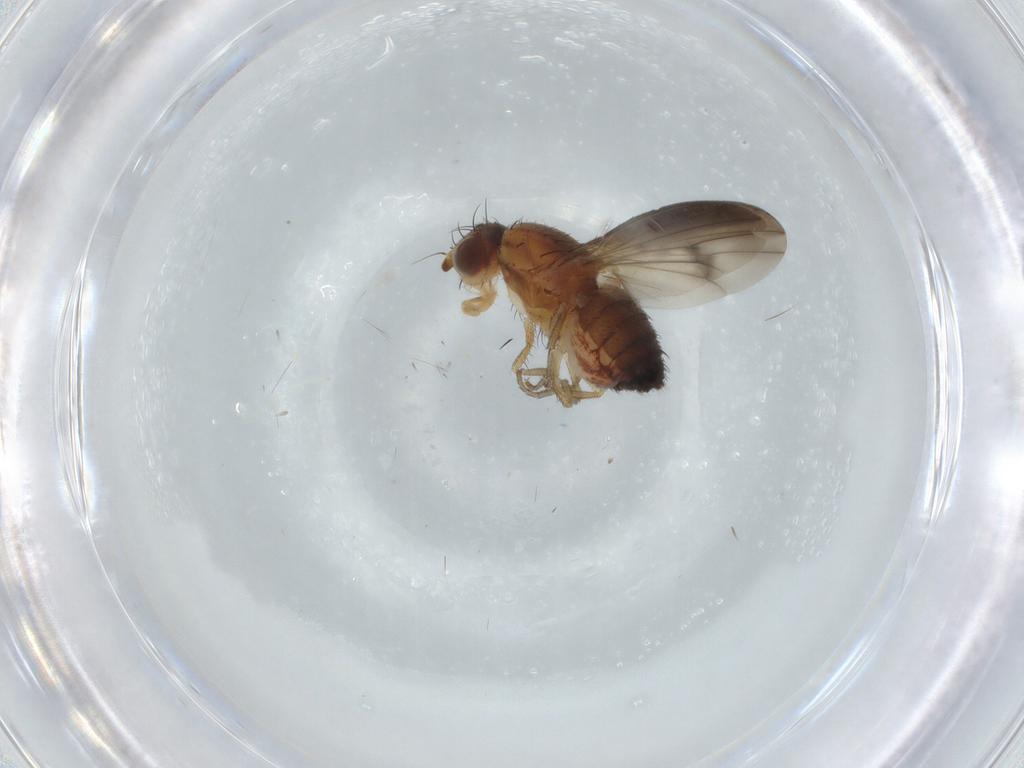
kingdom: Animalia
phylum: Arthropoda
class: Insecta
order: Diptera
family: Heleomyzidae
